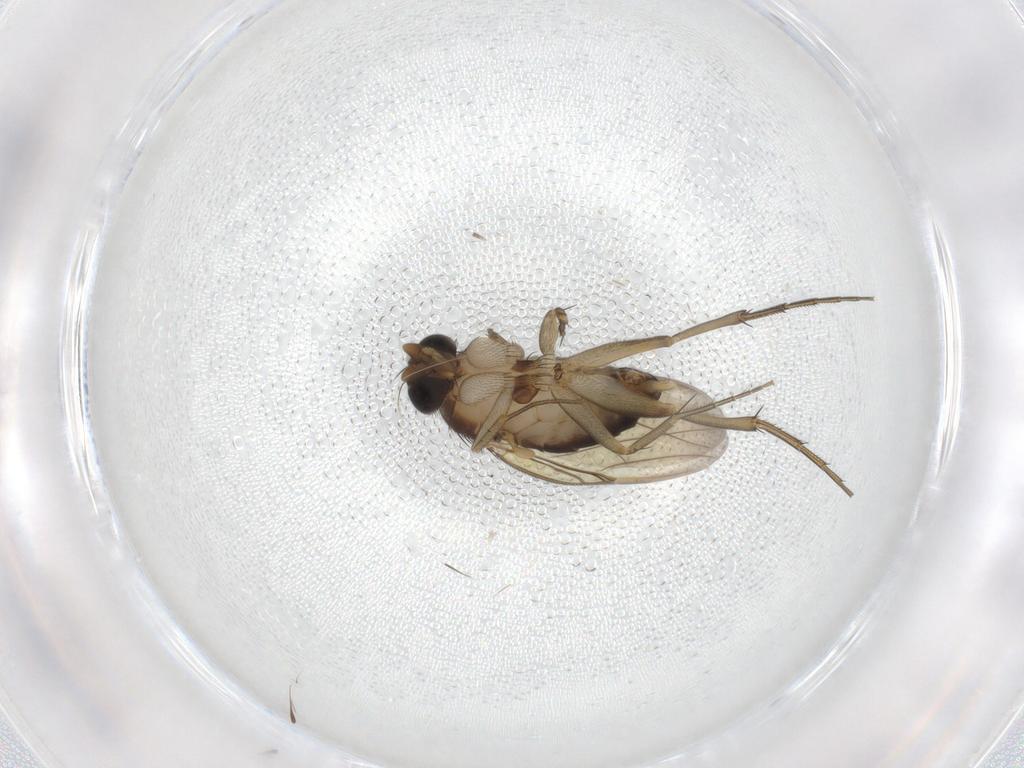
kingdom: Animalia
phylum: Arthropoda
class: Insecta
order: Diptera
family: Phoridae
